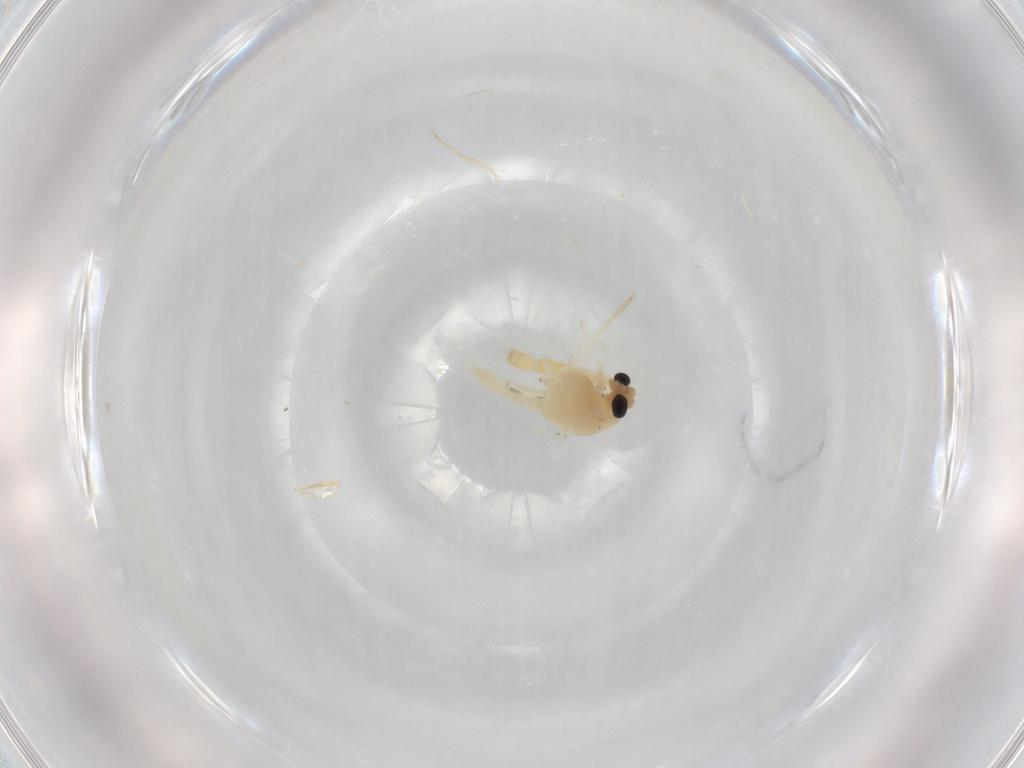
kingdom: Animalia
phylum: Arthropoda
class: Insecta
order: Diptera
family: Chironomidae
